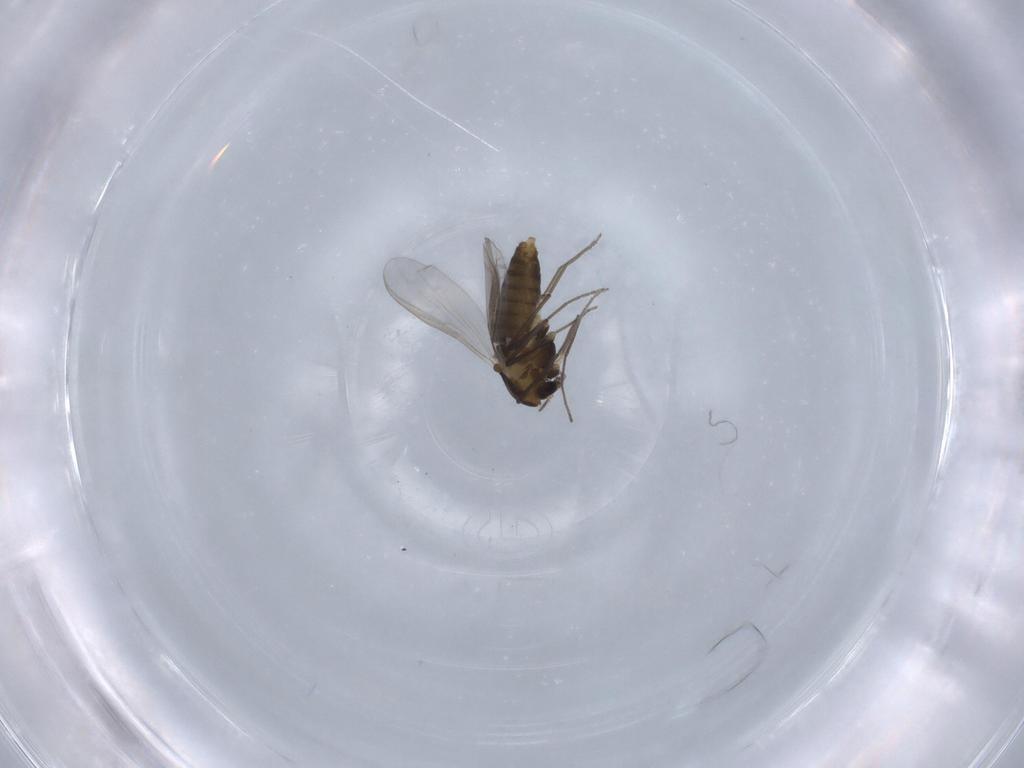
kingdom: Animalia
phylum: Arthropoda
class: Insecta
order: Diptera
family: Chironomidae
